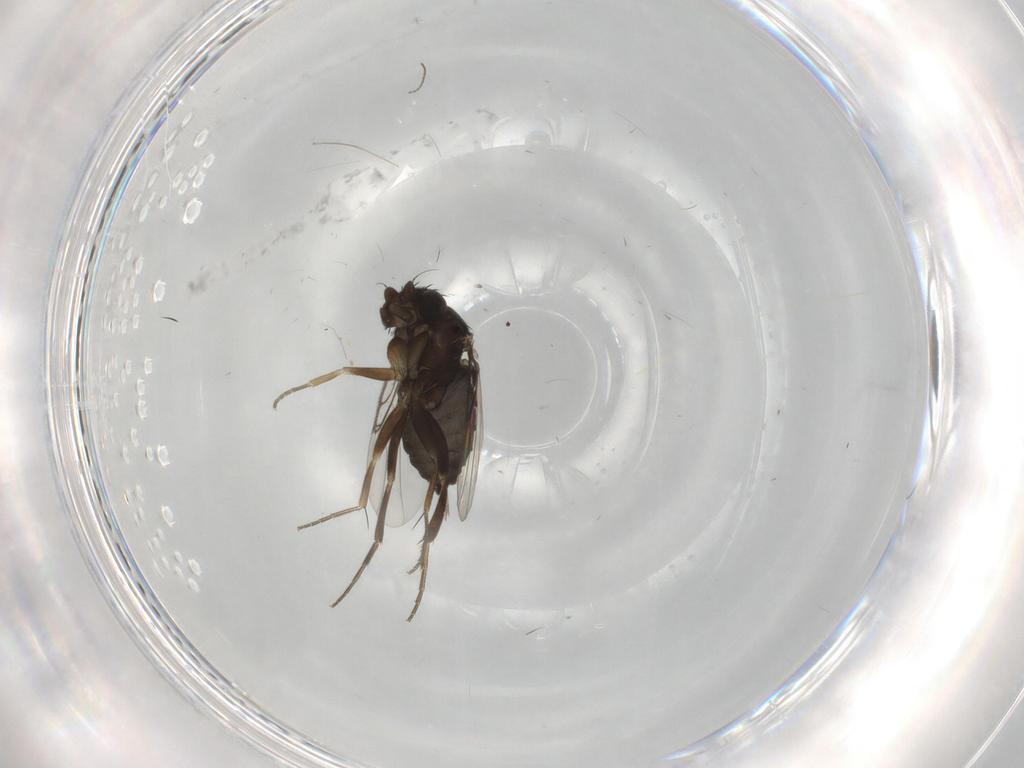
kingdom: Animalia
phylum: Arthropoda
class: Insecta
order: Diptera
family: Phoridae
